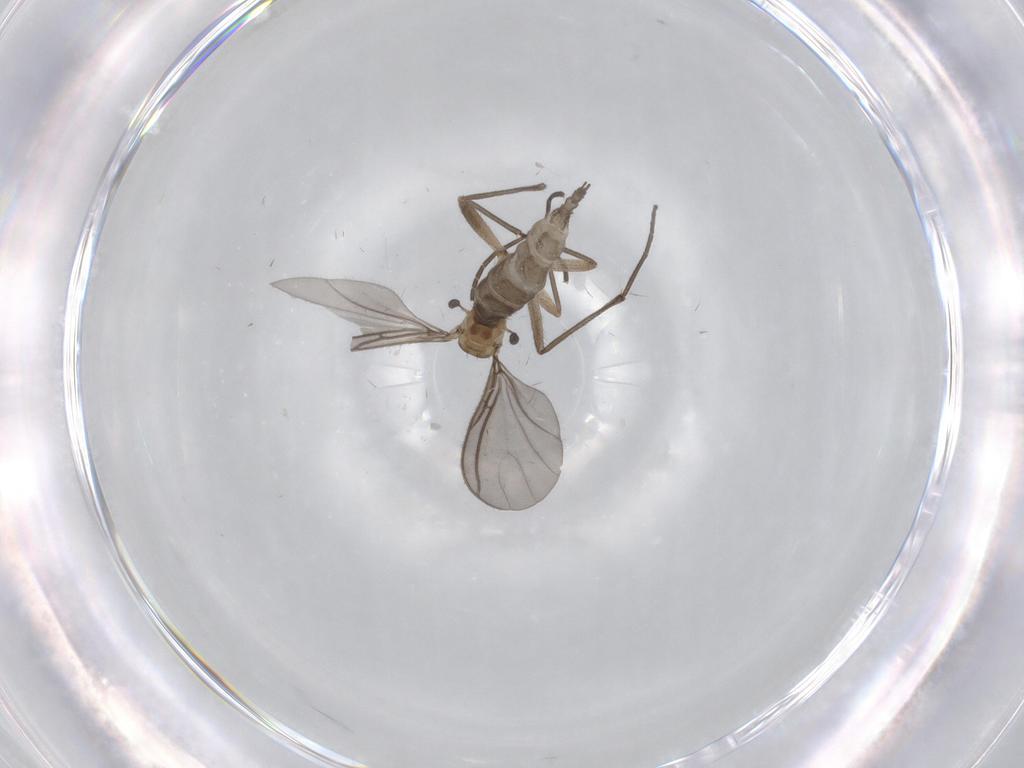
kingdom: Animalia
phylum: Arthropoda
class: Insecta
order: Diptera
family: Sciaridae
